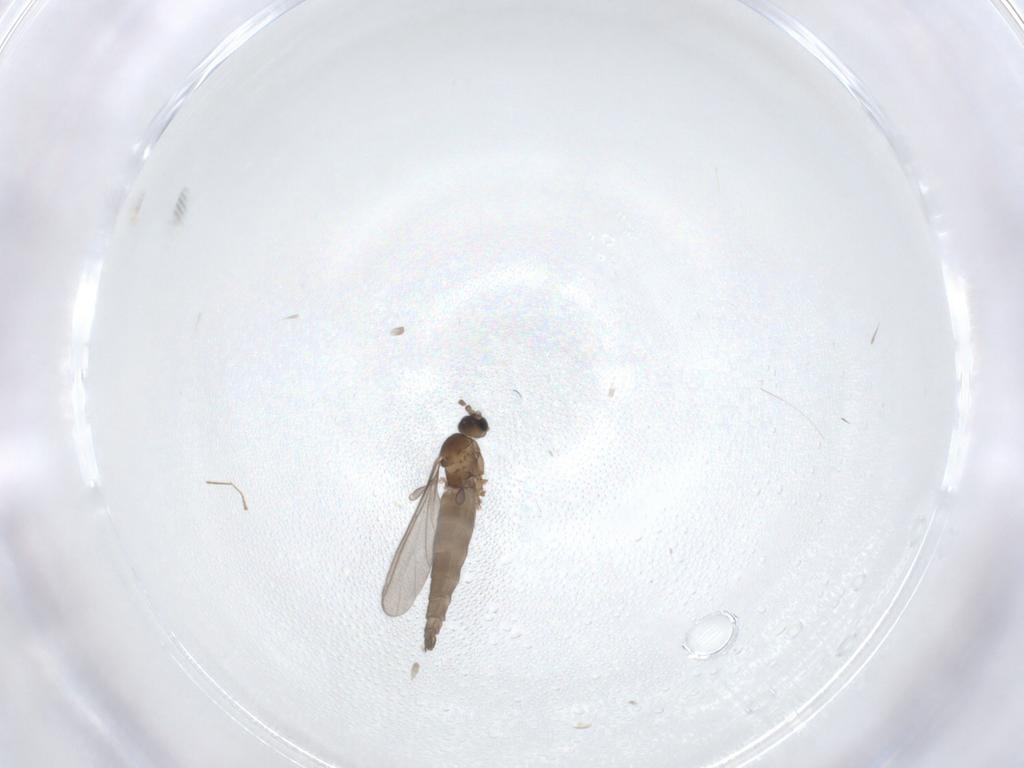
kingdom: Animalia
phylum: Arthropoda
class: Insecta
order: Diptera
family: Sciaridae
